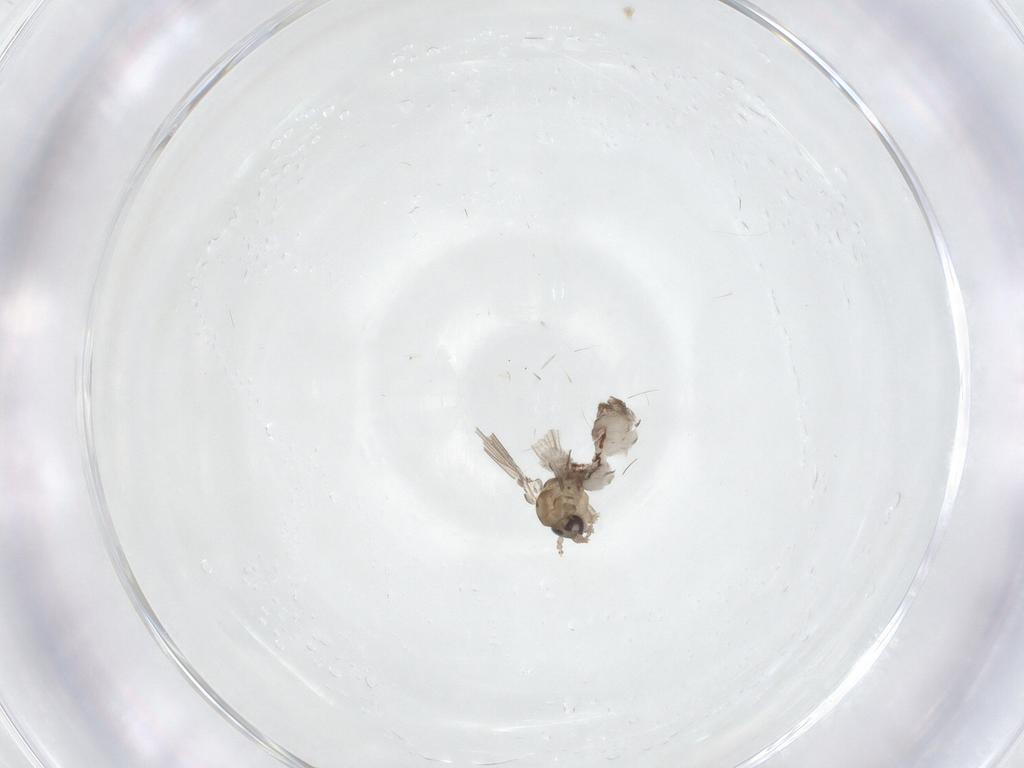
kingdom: Animalia
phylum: Arthropoda
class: Insecta
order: Diptera
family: Psychodidae
